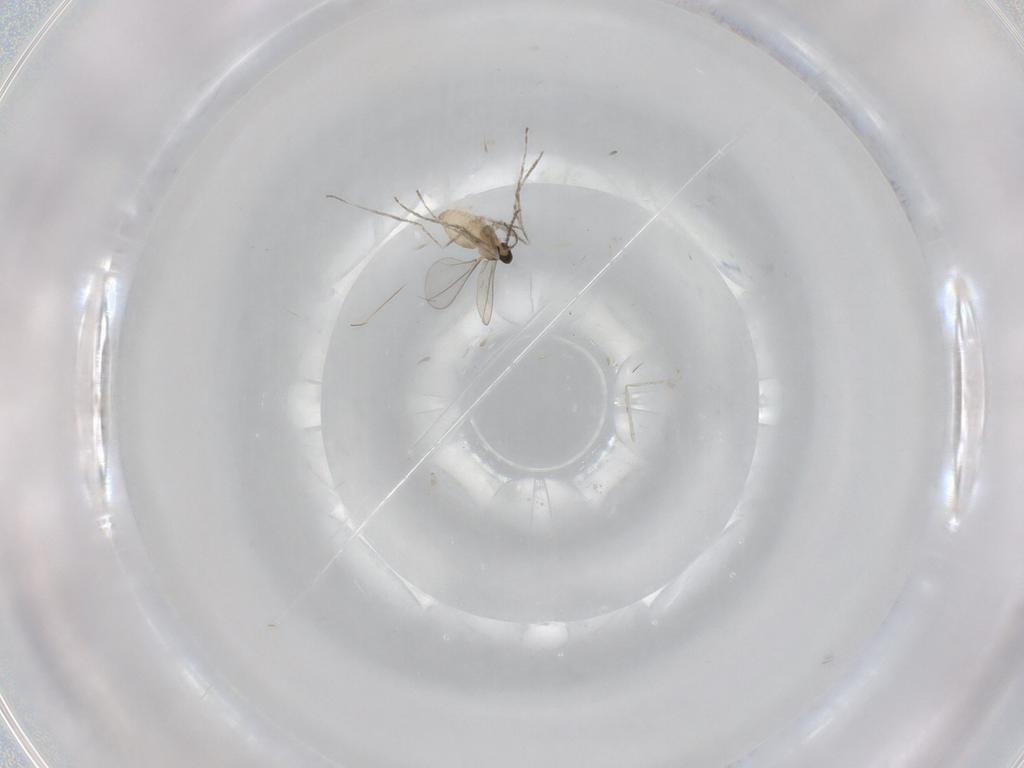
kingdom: Animalia
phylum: Arthropoda
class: Insecta
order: Diptera
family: Cecidomyiidae
